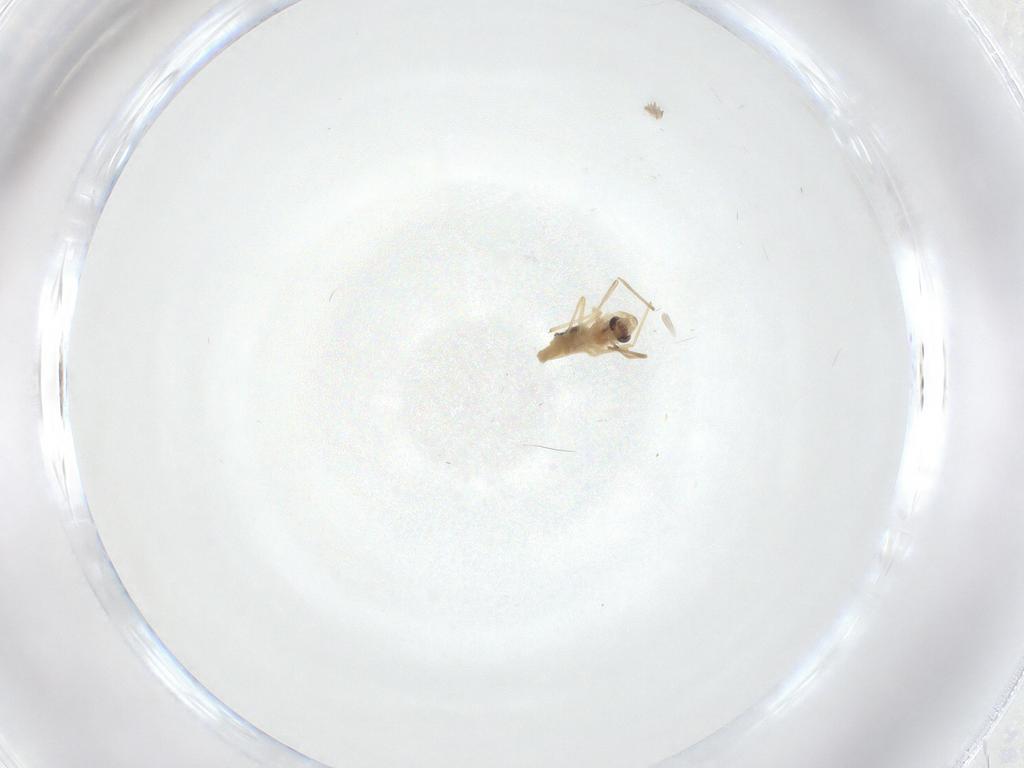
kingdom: Animalia
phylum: Arthropoda
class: Insecta
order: Diptera
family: Chironomidae
